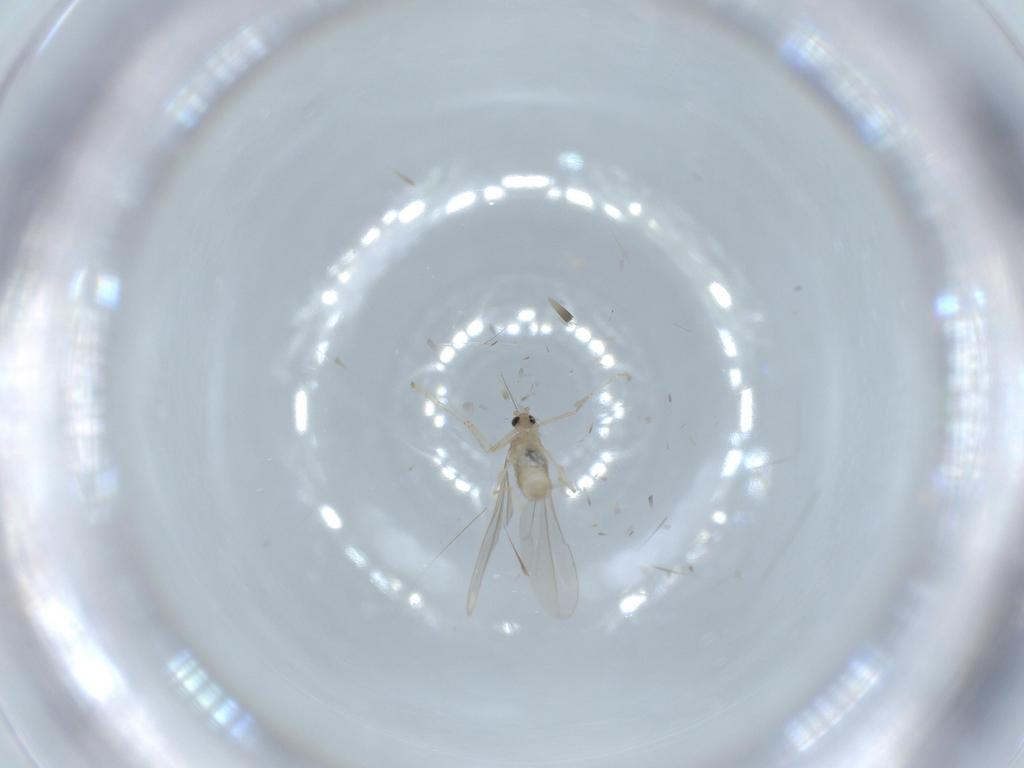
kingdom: Animalia
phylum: Arthropoda
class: Insecta
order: Diptera
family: Cecidomyiidae
